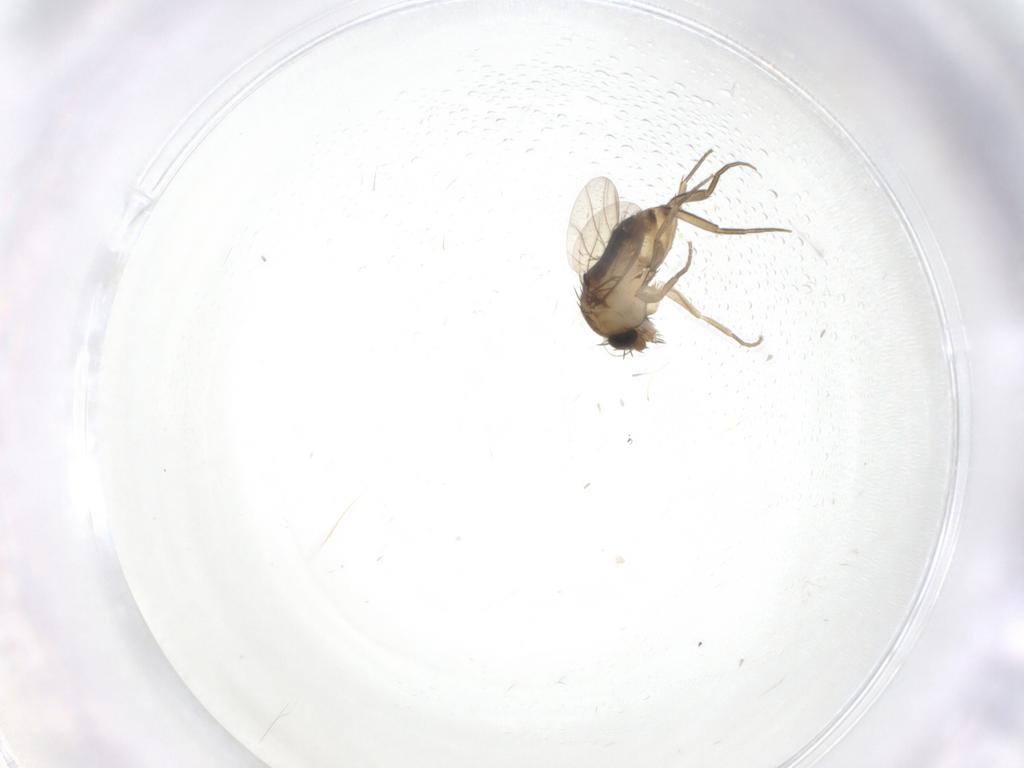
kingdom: Animalia
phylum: Arthropoda
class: Insecta
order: Diptera
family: Phoridae
